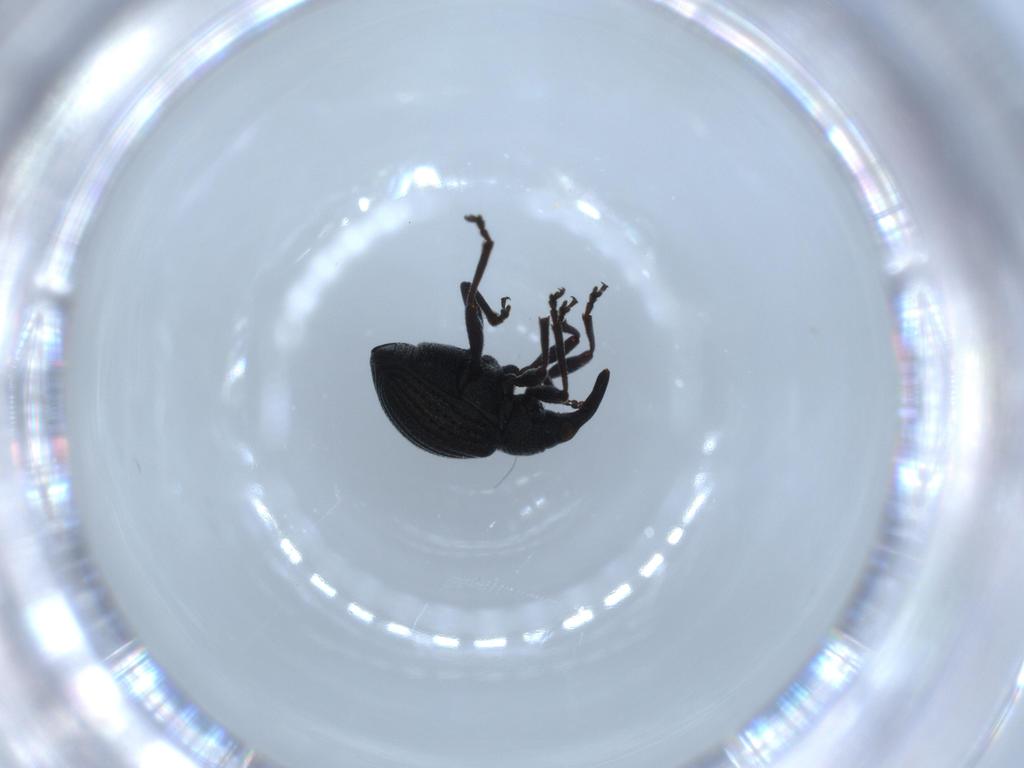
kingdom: Animalia
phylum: Arthropoda
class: Insecta
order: Coleoptera
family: Brentidae
